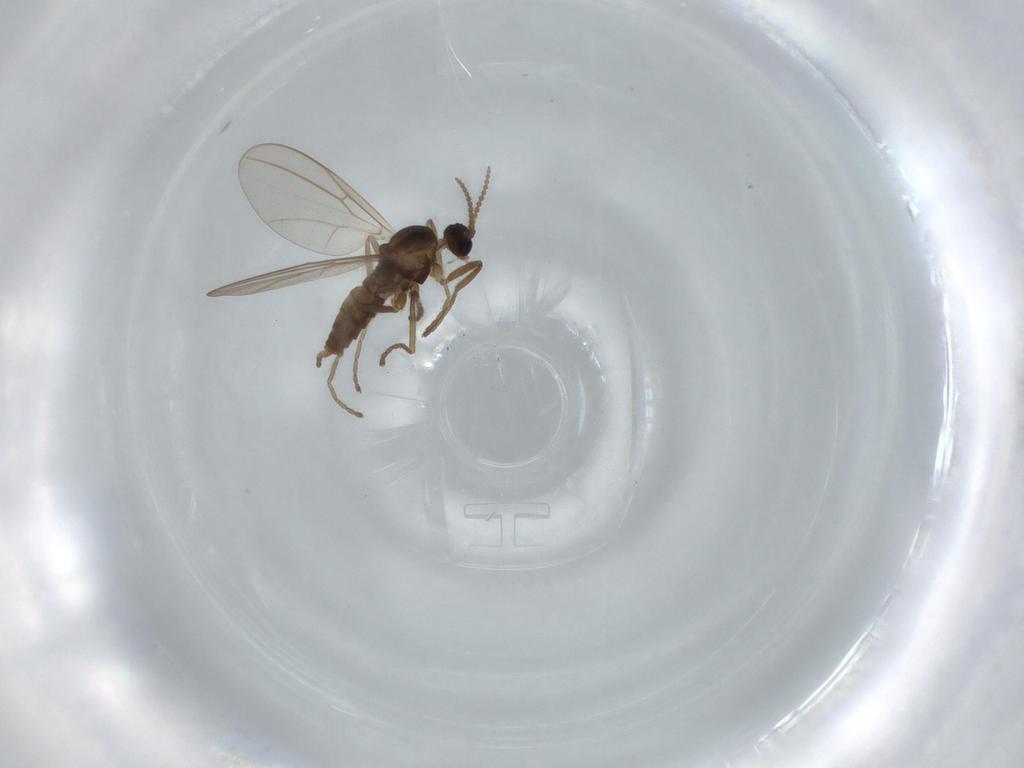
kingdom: Animalia
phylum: Arthropoda
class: Insecta
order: Diptera
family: Cecidomyiidae
